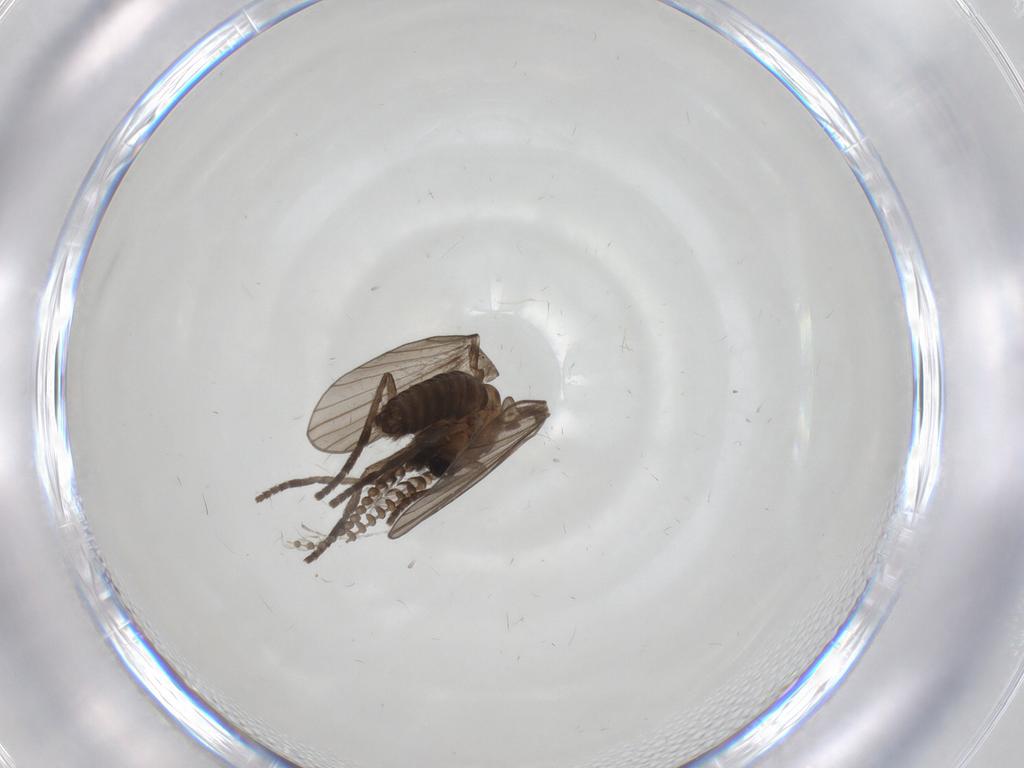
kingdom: Animalia
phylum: Arthropoda
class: Insecta
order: Diptera
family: Psychodidae
